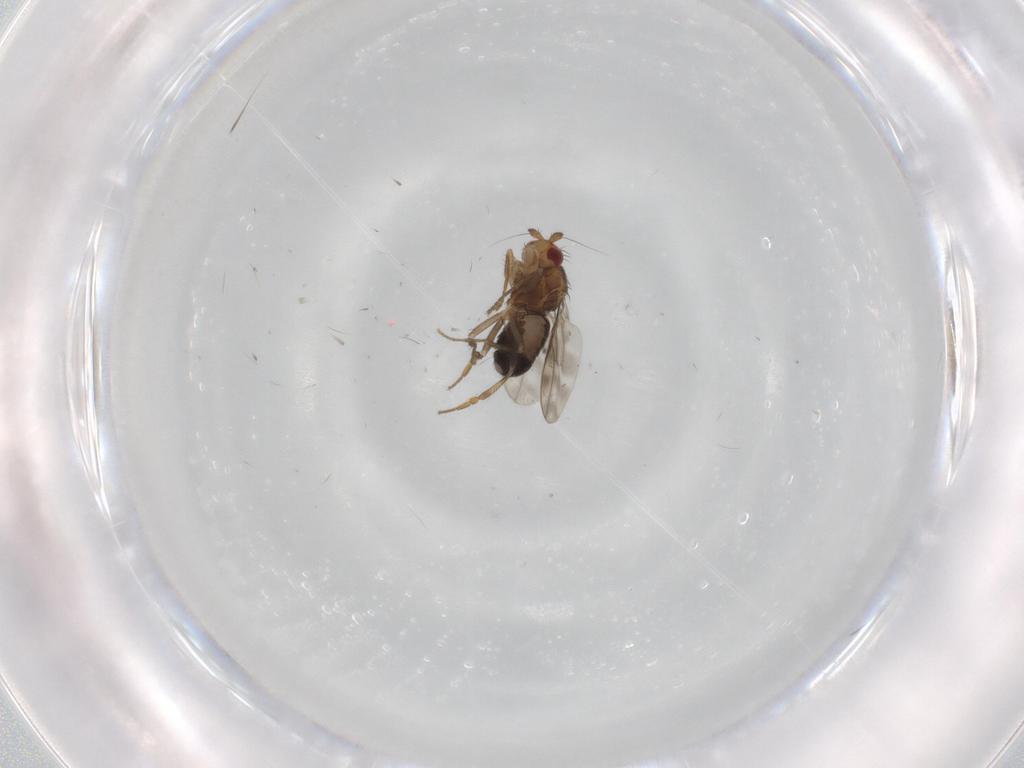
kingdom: Animalia
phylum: Arthropoda
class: Insecta
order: Diptera
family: Sphaeroceridae
